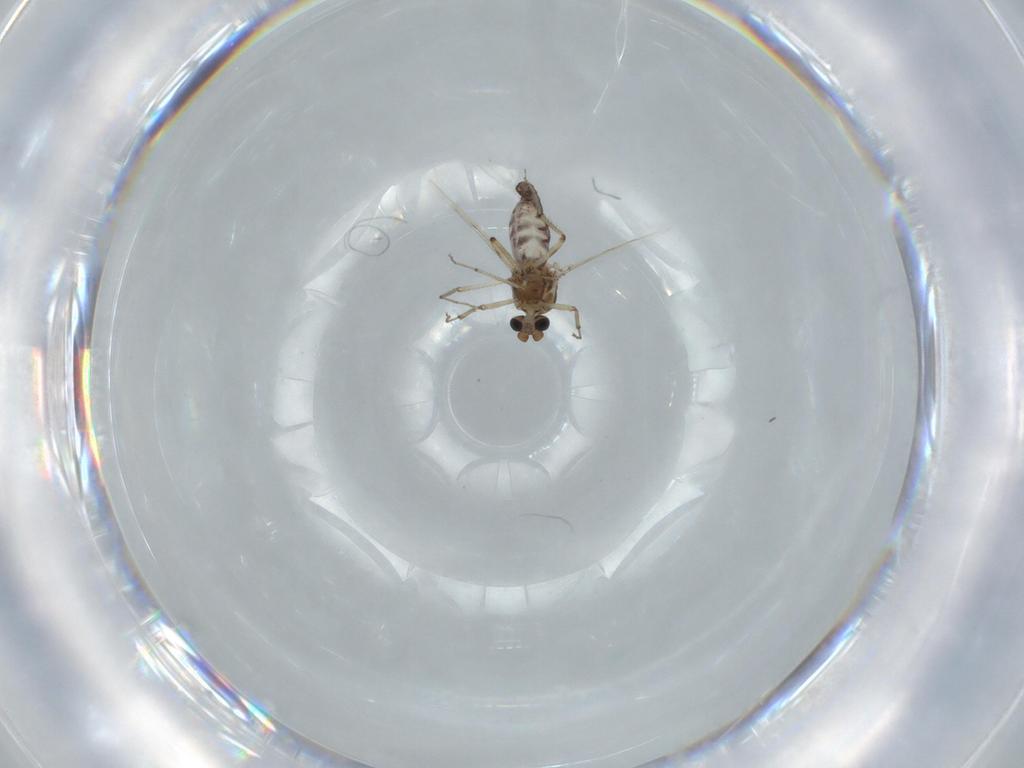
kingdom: Animalia
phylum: Arthropoda
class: Insecta
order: Diptera
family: Ceratopogonidae
